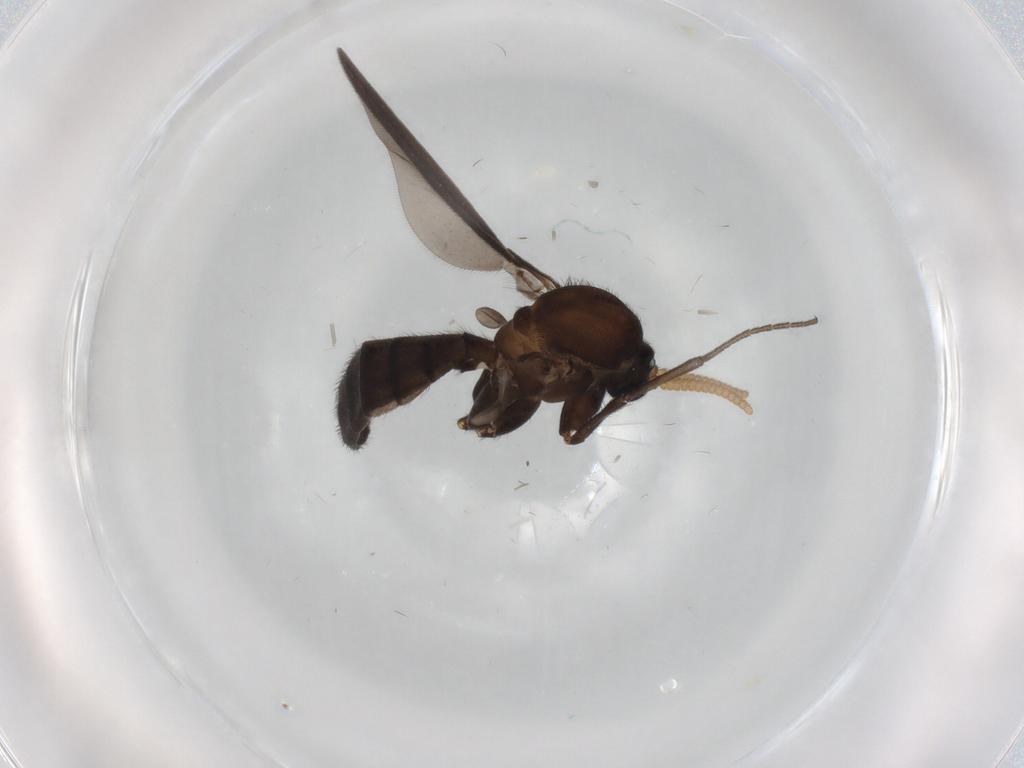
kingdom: Animalia
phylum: Arthropoda
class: Insecta
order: Diptera
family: Phoridae
